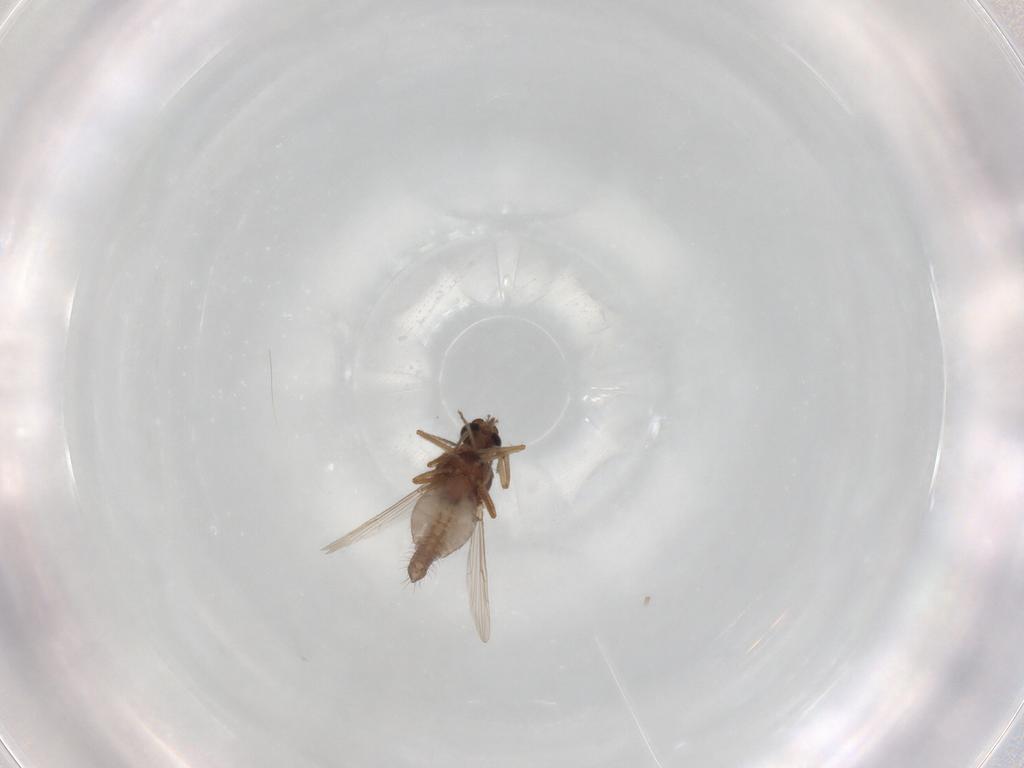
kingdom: Animalia
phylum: Arthropoda
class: Insecta
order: Diptera
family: Ceratopogonidae
